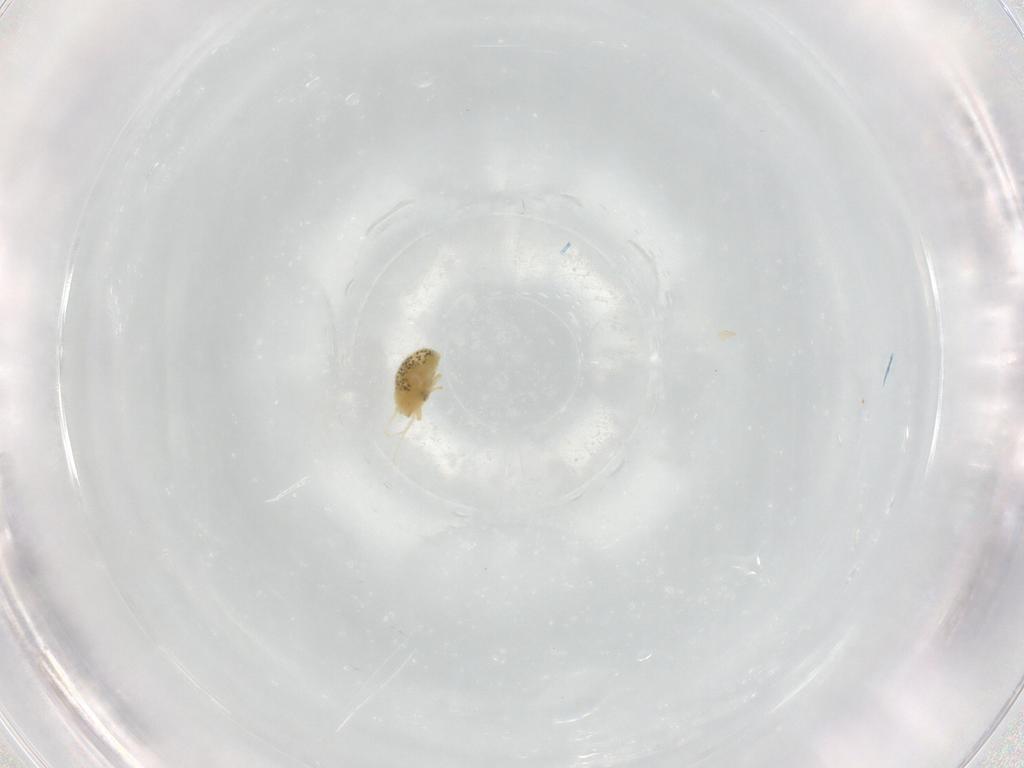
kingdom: Animalia
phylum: Arthropoda
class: Arachnida
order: Trombidiformes
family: Tetranychidae
